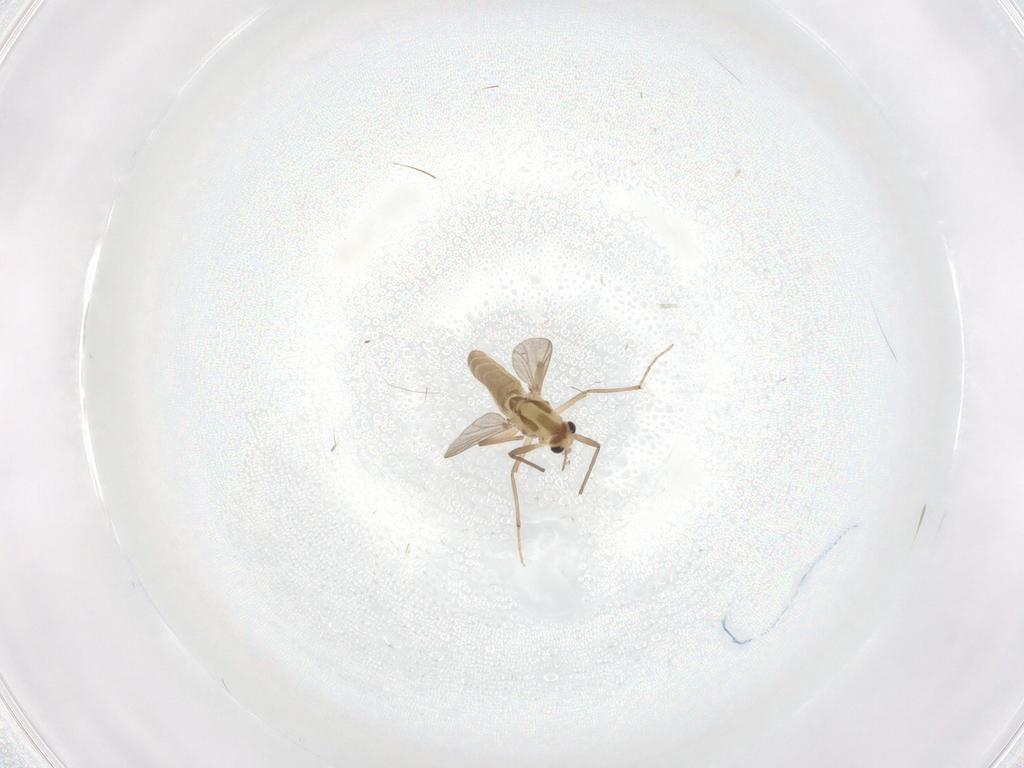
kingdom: Animalia
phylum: Arthropoda
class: Insecta
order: Diptera
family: Chironomidae
